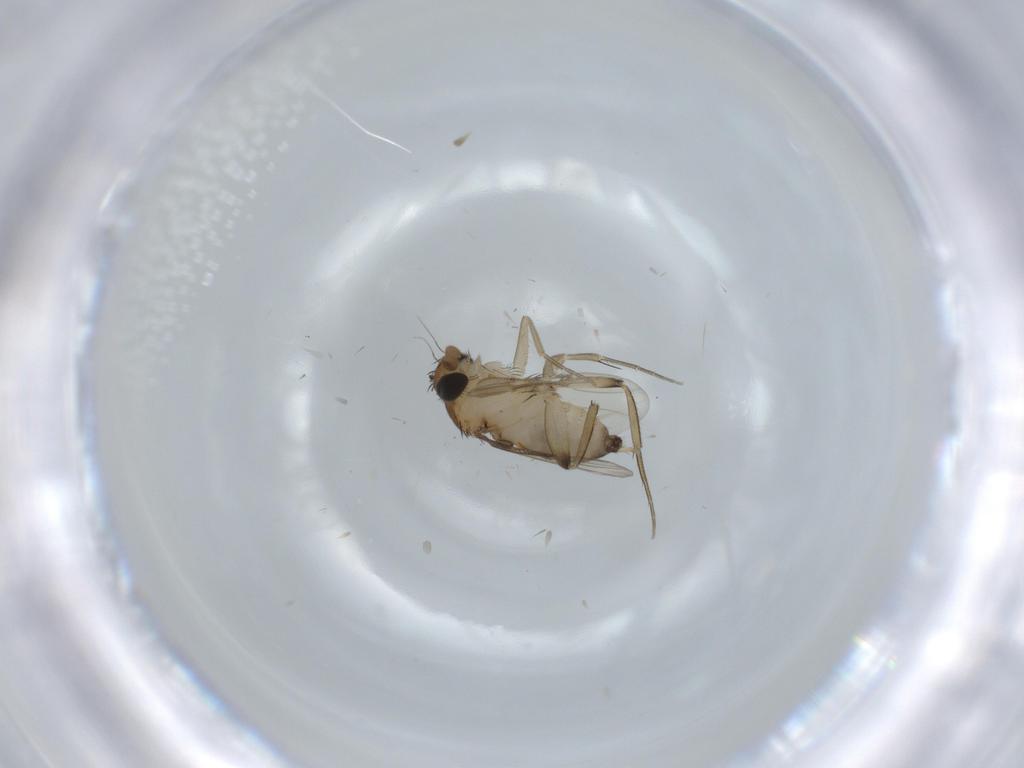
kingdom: Animalia
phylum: Arthropoda
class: Insecta
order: Diptera
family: Phoridae
